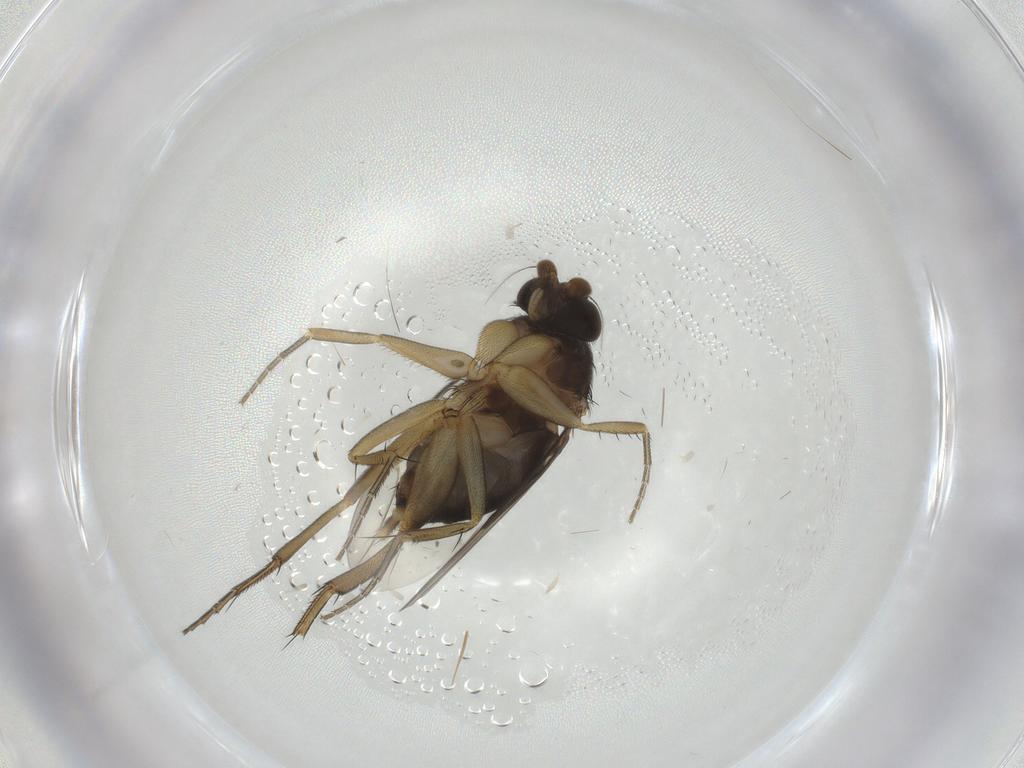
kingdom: Animalia
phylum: Arthropoda
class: Insecta
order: Diptera
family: Phoridae
